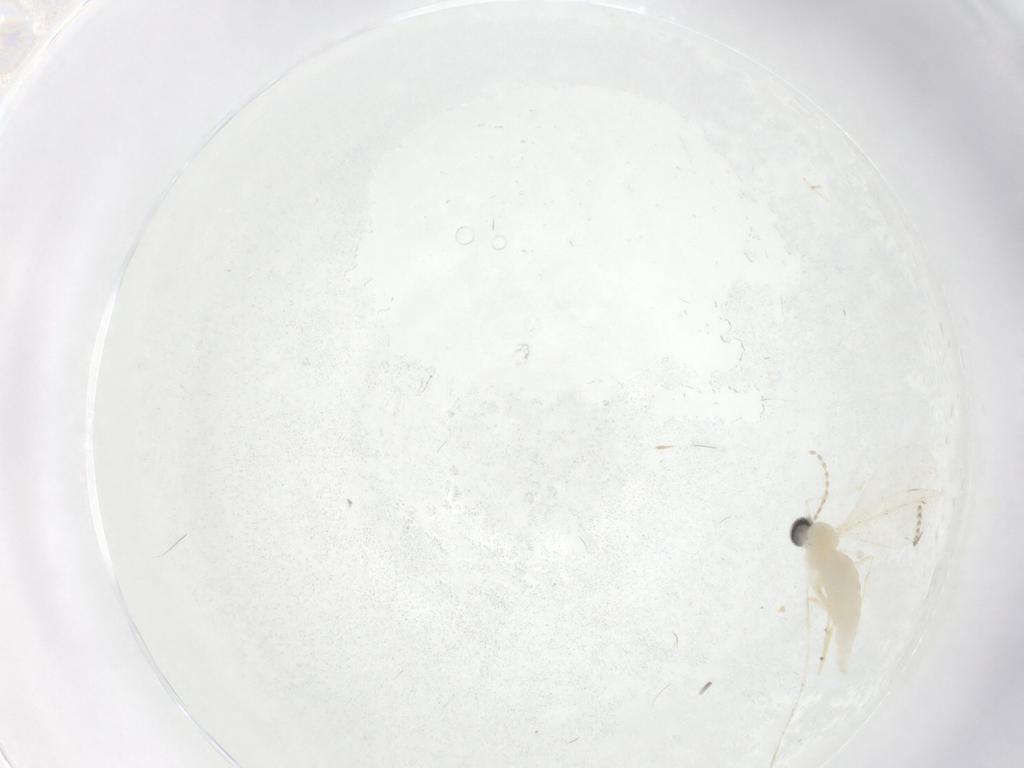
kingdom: Animalia
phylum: Arthropoda
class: Insecta
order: Diptera
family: Cecidomyiidae
